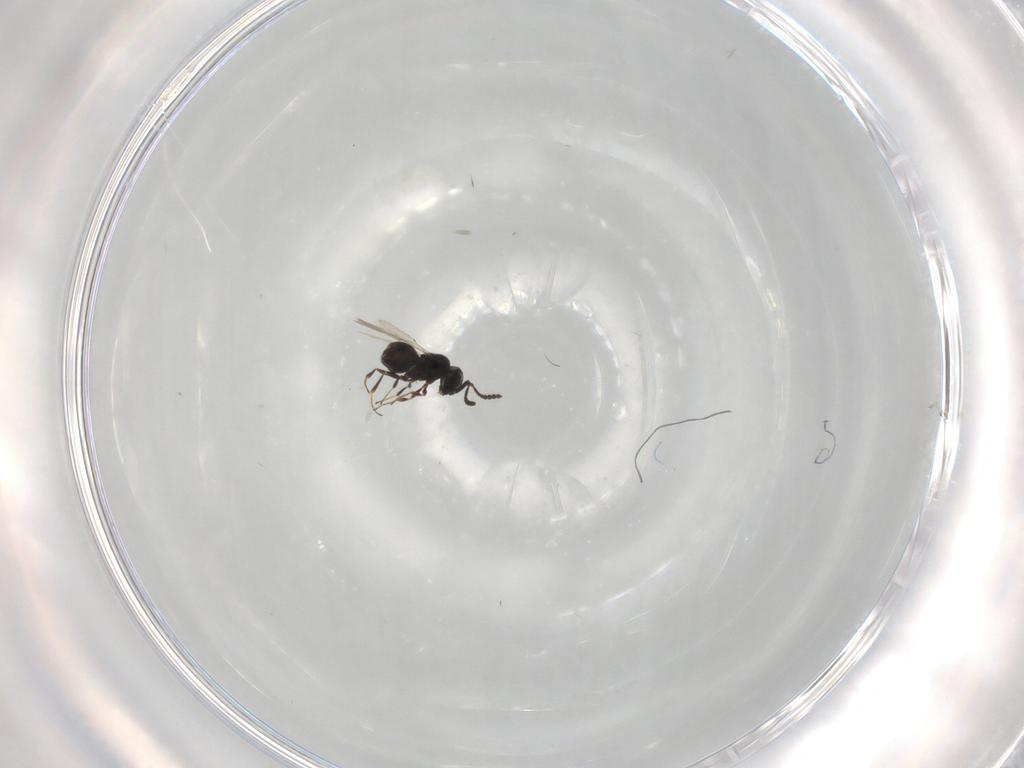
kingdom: Animalia
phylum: Arthropoda
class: Insecta
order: Hymenoptera
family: Scelionidae
